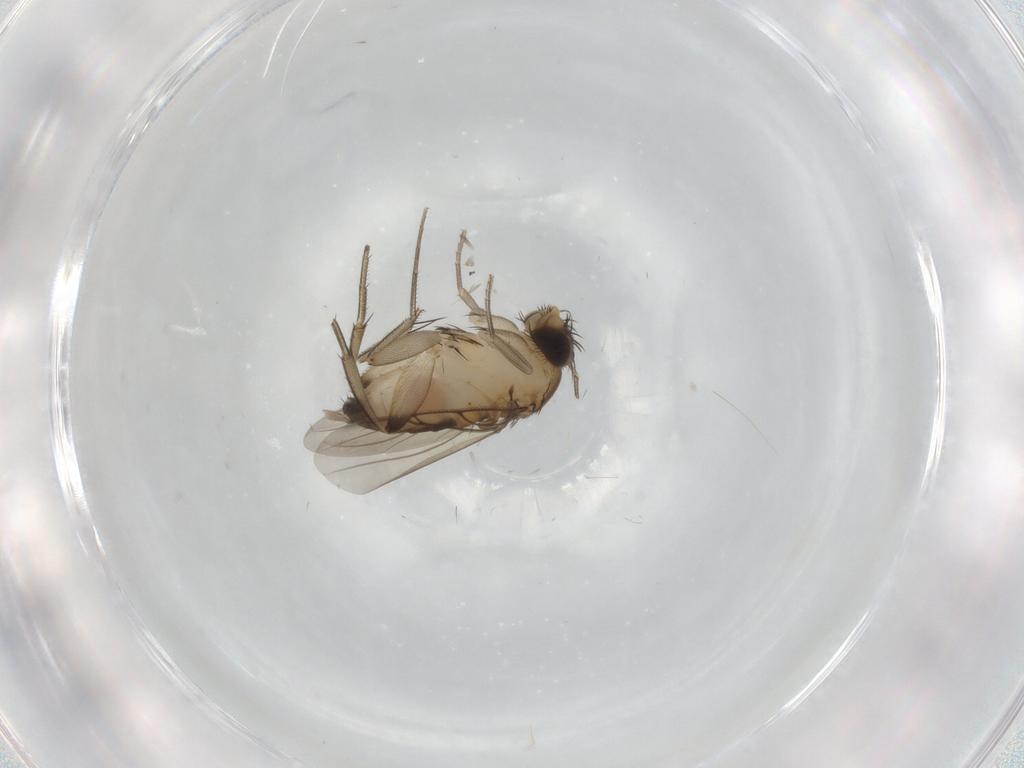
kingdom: Animalia
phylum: Arthropoda
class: Insecta
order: Diptera
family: Phoridae
